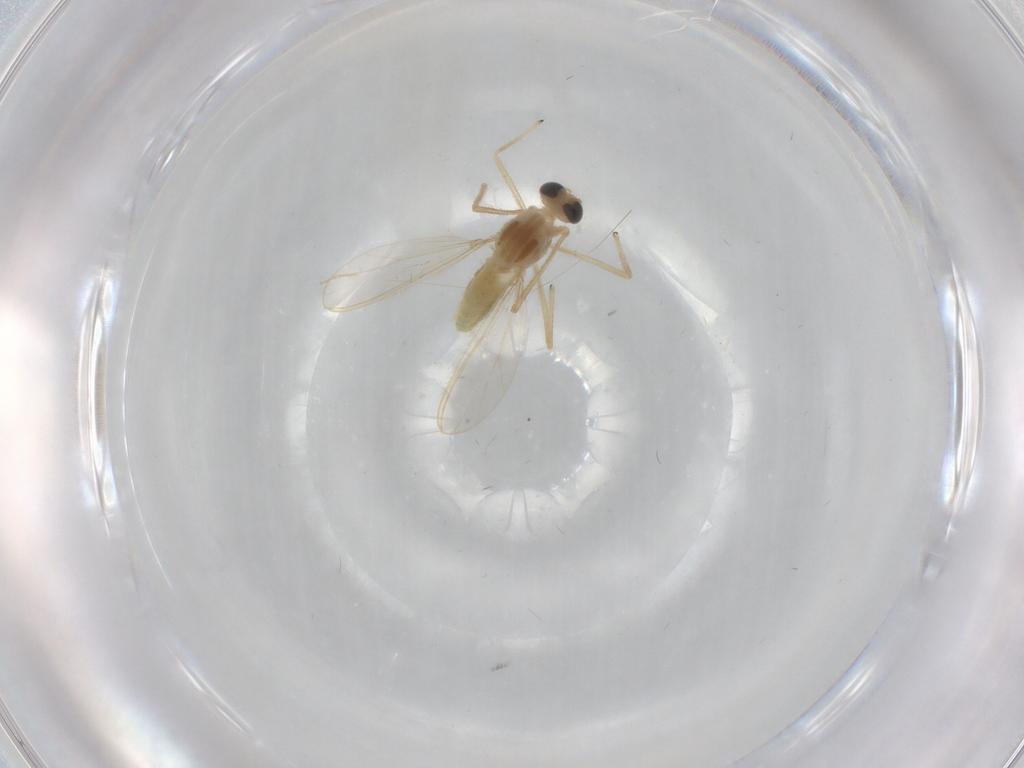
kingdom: Animalia
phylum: Arthropoda
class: Insecta
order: Diptera
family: Chironomidae
